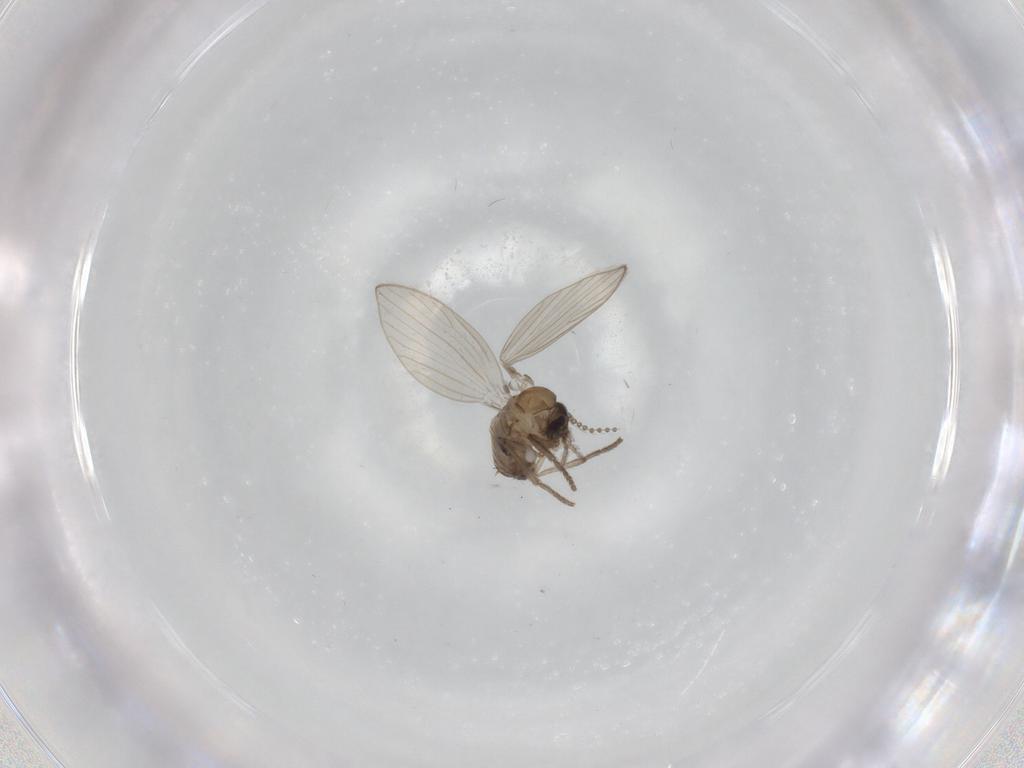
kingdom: Animalia
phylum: Arthropoda
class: Insecta
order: Diptera
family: Psychodidae
